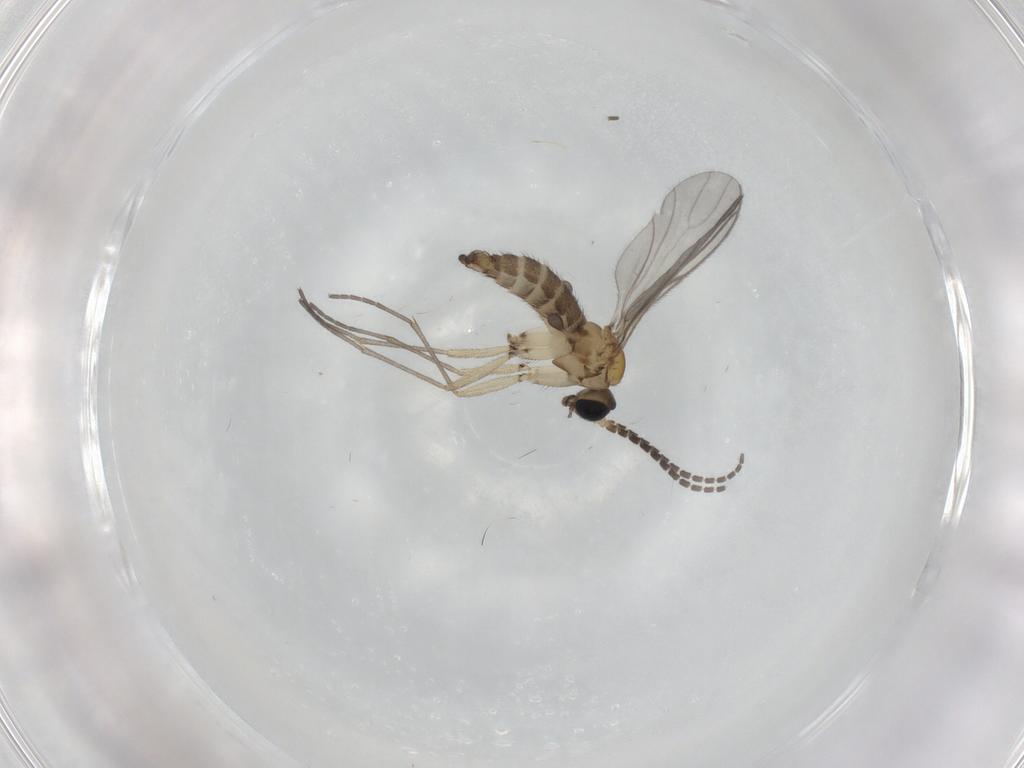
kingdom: Animalia
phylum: Arthropoda
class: Insecta
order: Diptera
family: Sciaridae
